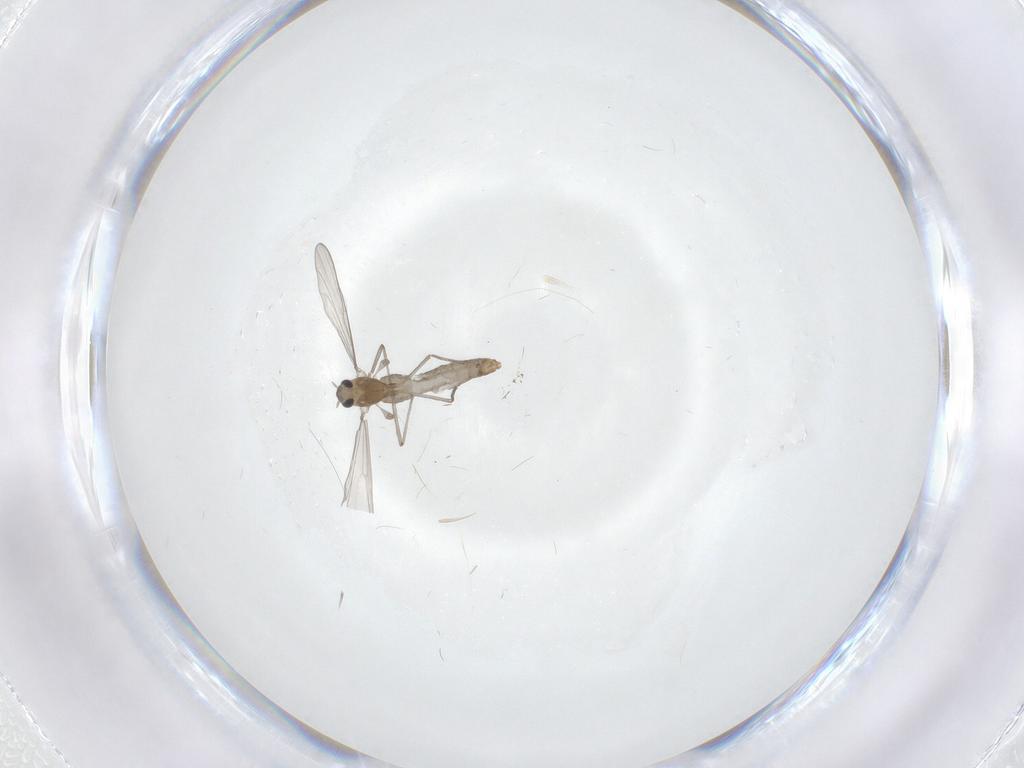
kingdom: Animalia
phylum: Arthropoda
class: Insecta
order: Diptera
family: Chironomidae
